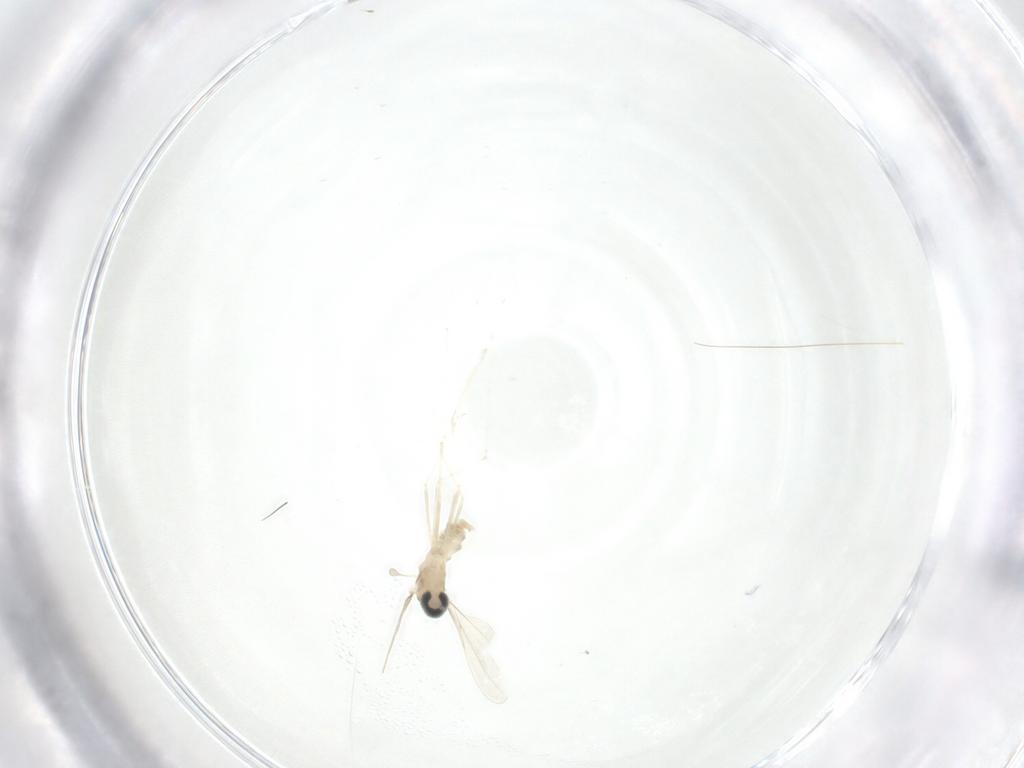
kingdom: Animalia
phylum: Arthropoda
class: Insecta
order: Diptera
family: Cecidomyiidae
